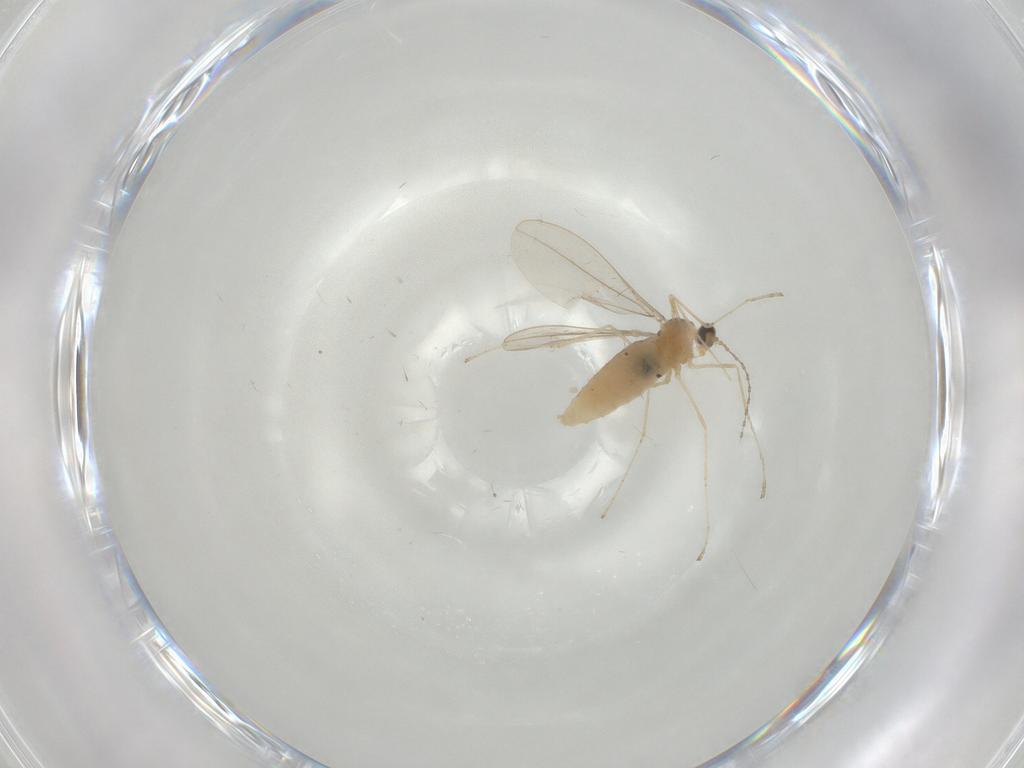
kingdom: Animalia
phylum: Arthropoda
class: Insecta
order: Diptera
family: Cecidomyiidae
